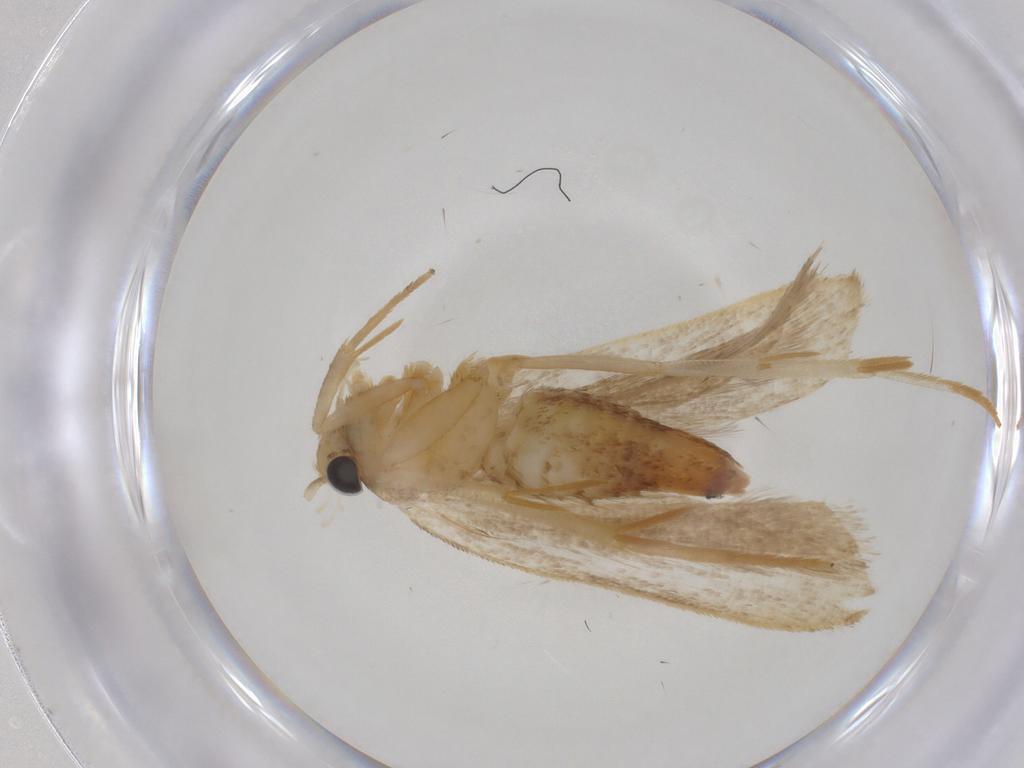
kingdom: Animalia
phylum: Arthropoda
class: Insecta
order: Lepidoptera
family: Gelechiidae
